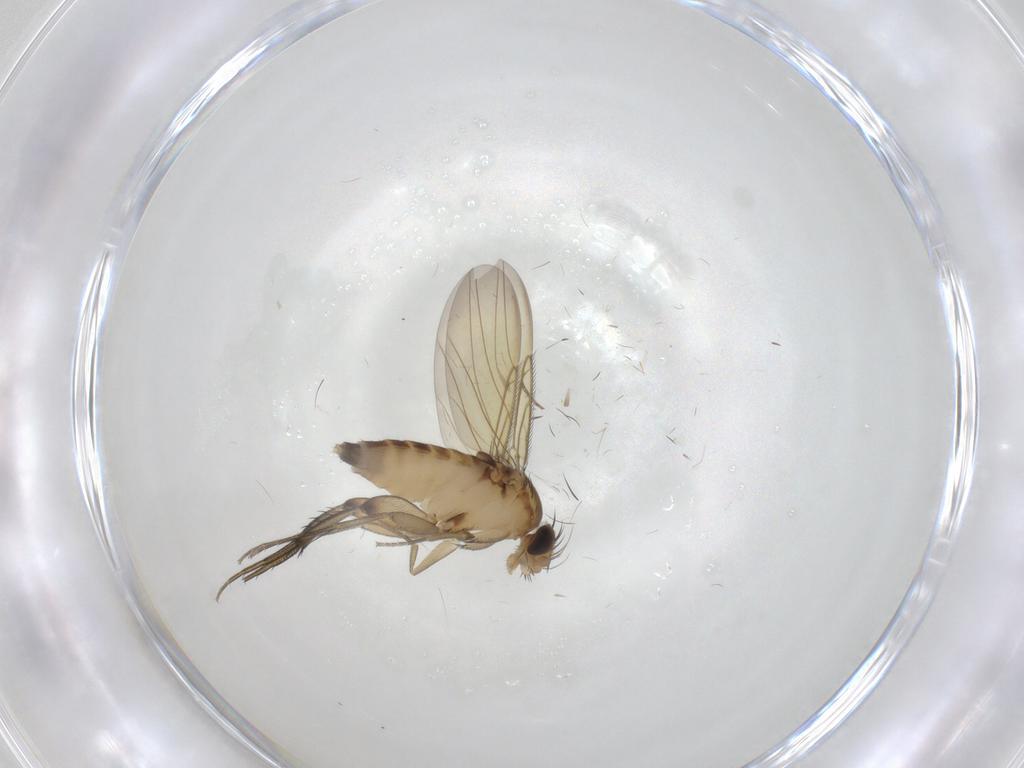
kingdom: Animalia
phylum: Arthropoda
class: Insecta
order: Diptera
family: Phoridae
